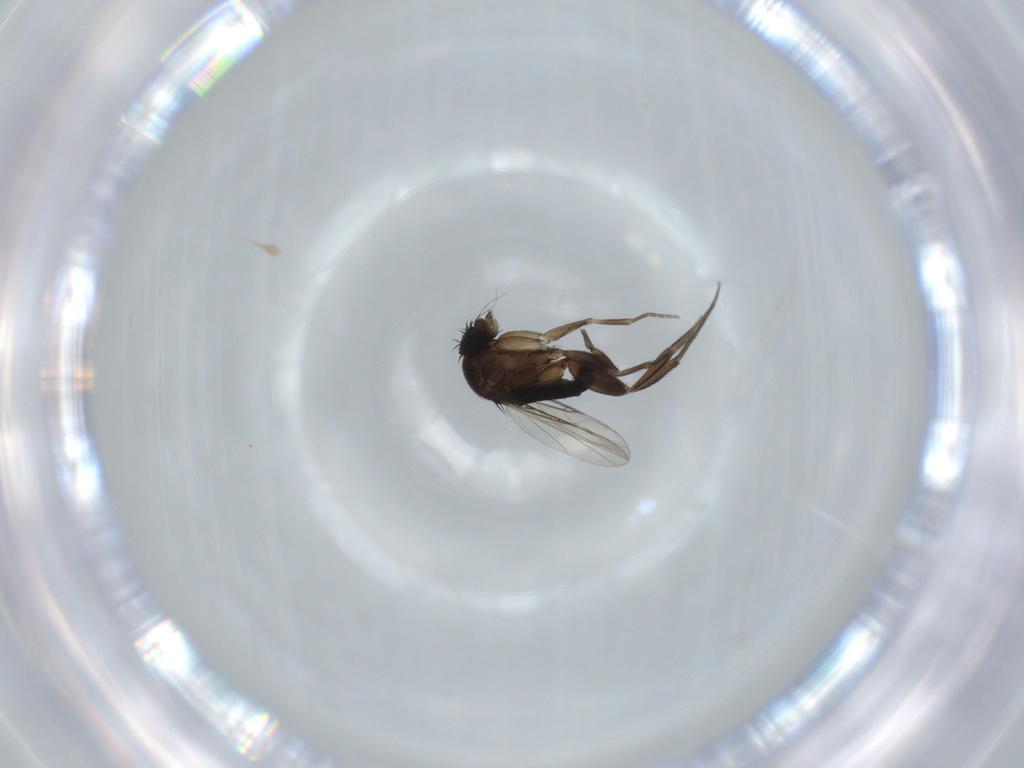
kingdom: Animalia
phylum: Arthropoda
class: Insecta
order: Diptera
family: Phoridae
